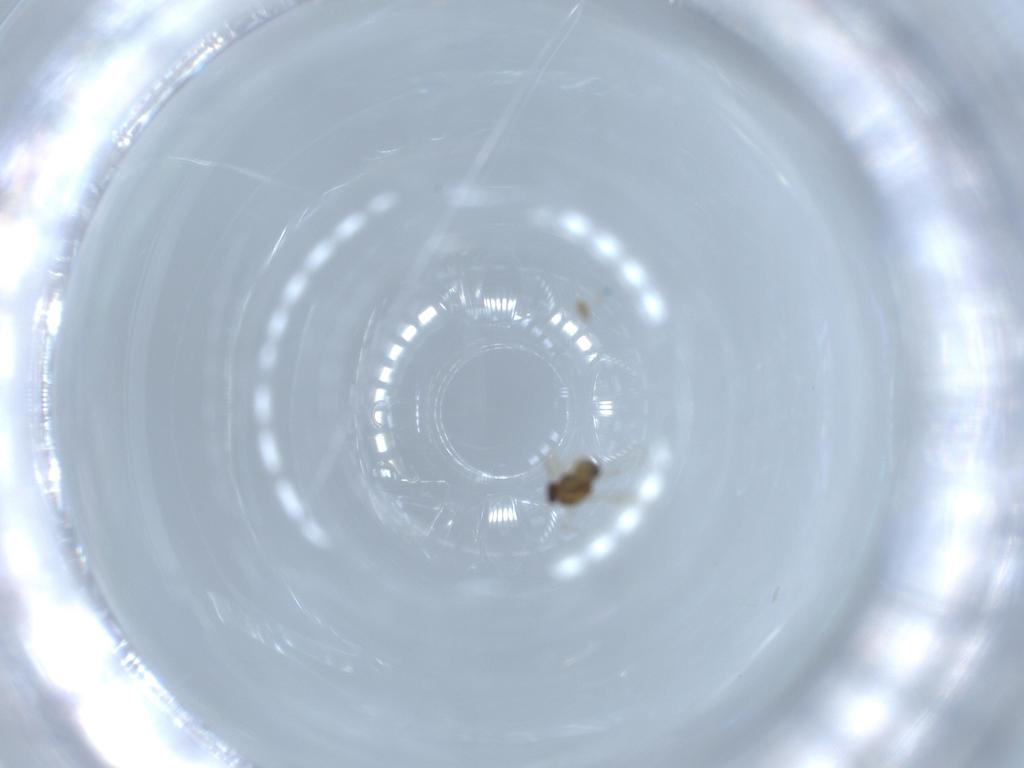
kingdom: Animalia
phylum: Arthropoda
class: Insecta
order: Diptera
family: Chironomidae
